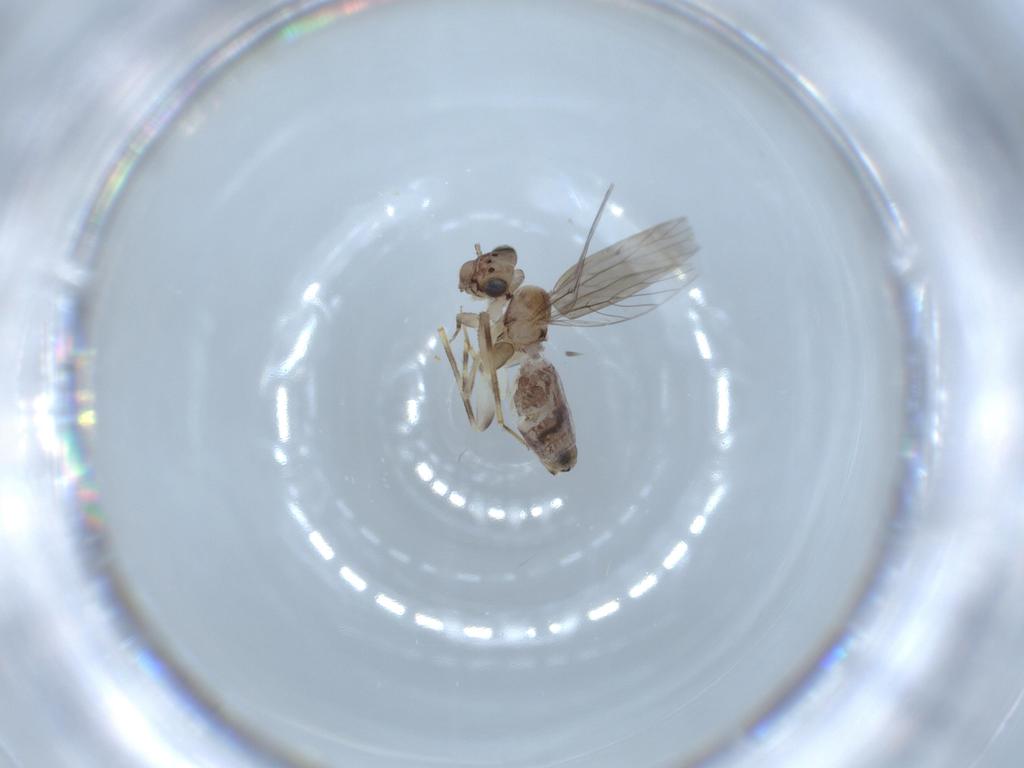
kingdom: Animalia
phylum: Arthropoda
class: Insecta
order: Psocodea
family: Lepidopsocidae
